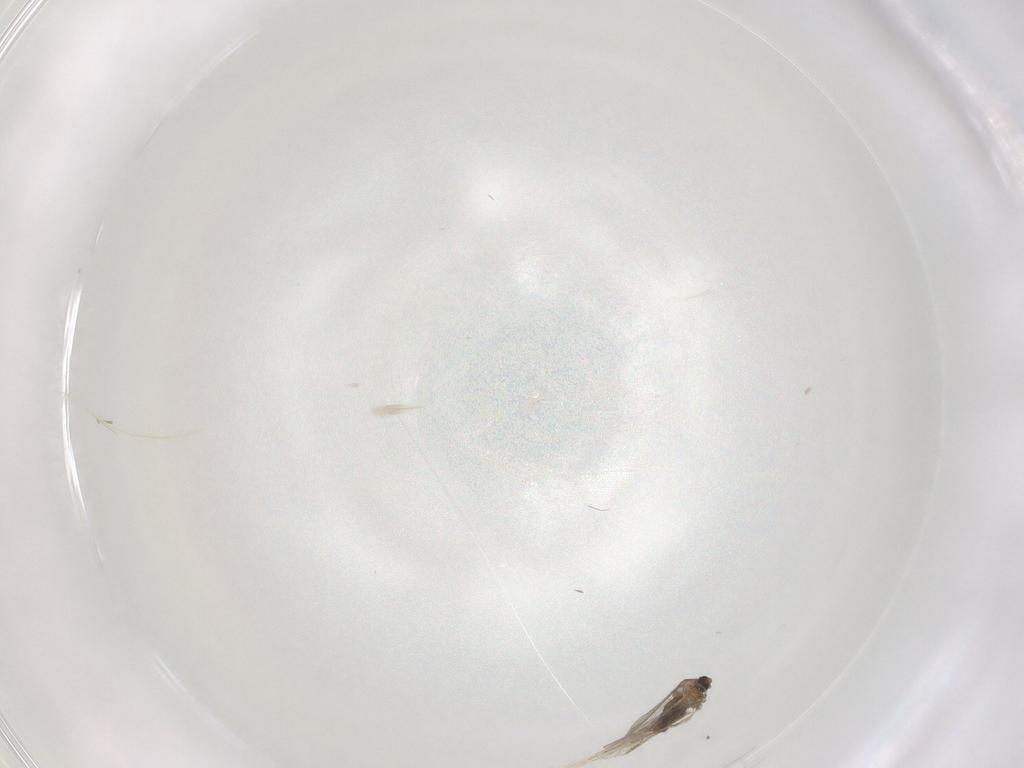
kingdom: Animalia
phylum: Arthropoda
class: Insecta
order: Diptera
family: Cecidomyiidae
